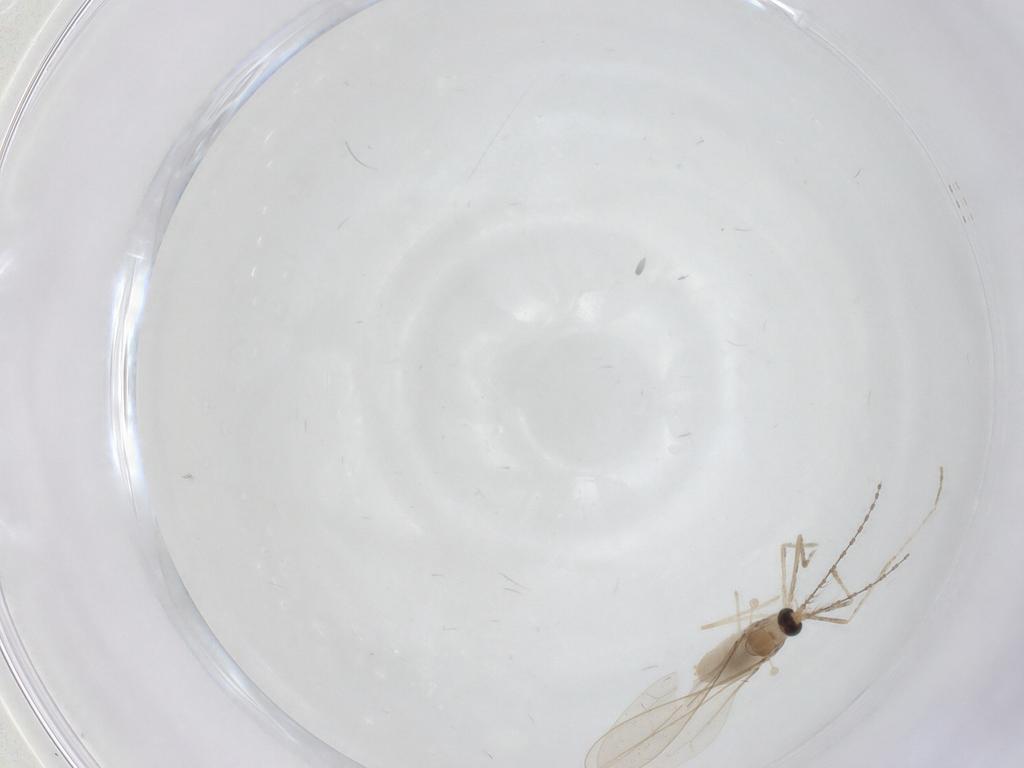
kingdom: Animalia
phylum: Arthropoda
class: Insecta
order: Diptera
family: Cecidomyiidae
